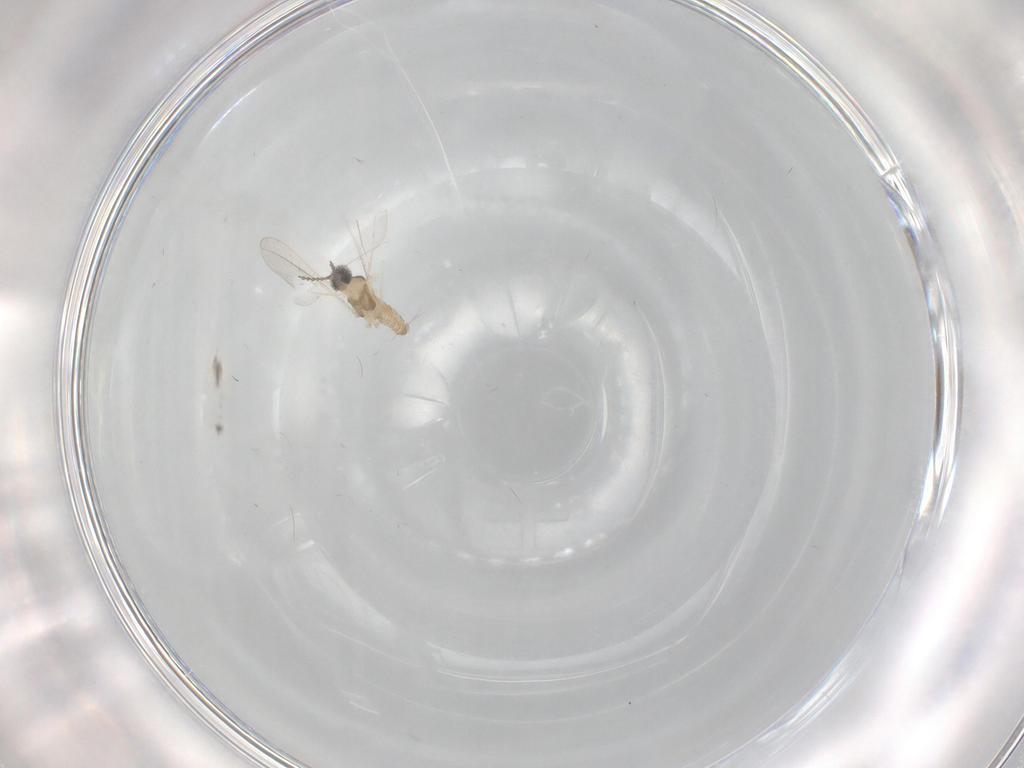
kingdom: Animalia
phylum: Arthropoda
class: Insecta
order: Diptera
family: Cecidomyiidae
